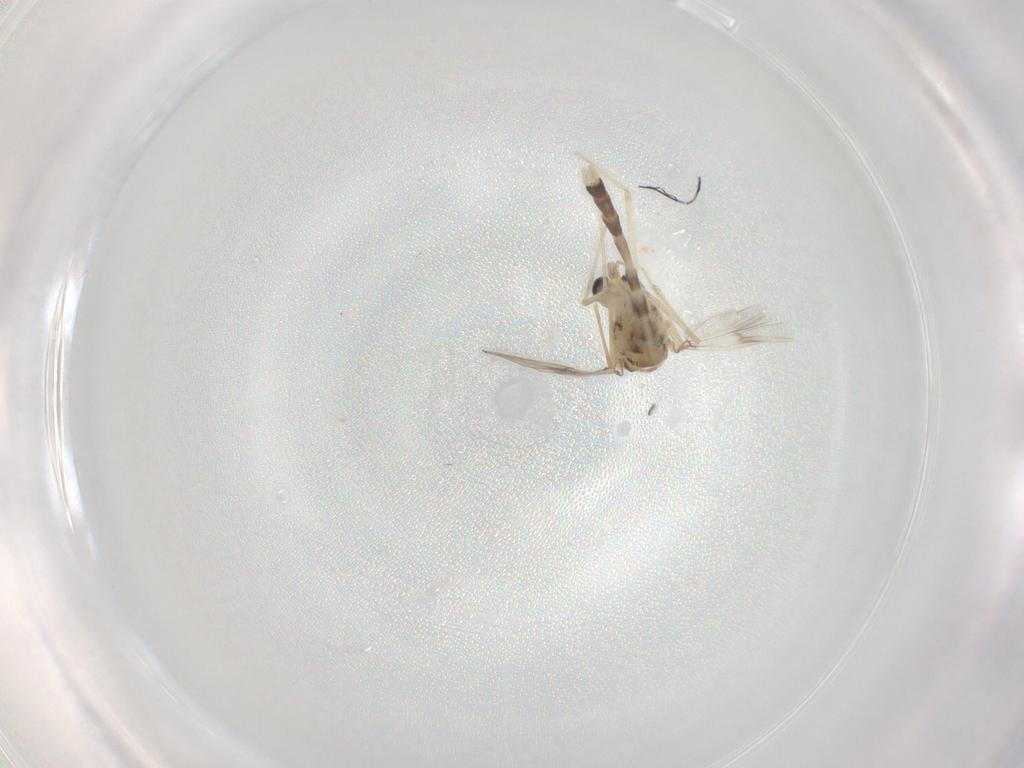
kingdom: Animalia
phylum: Arthropoda
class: Insecta
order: Diptera
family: Chironomidae
